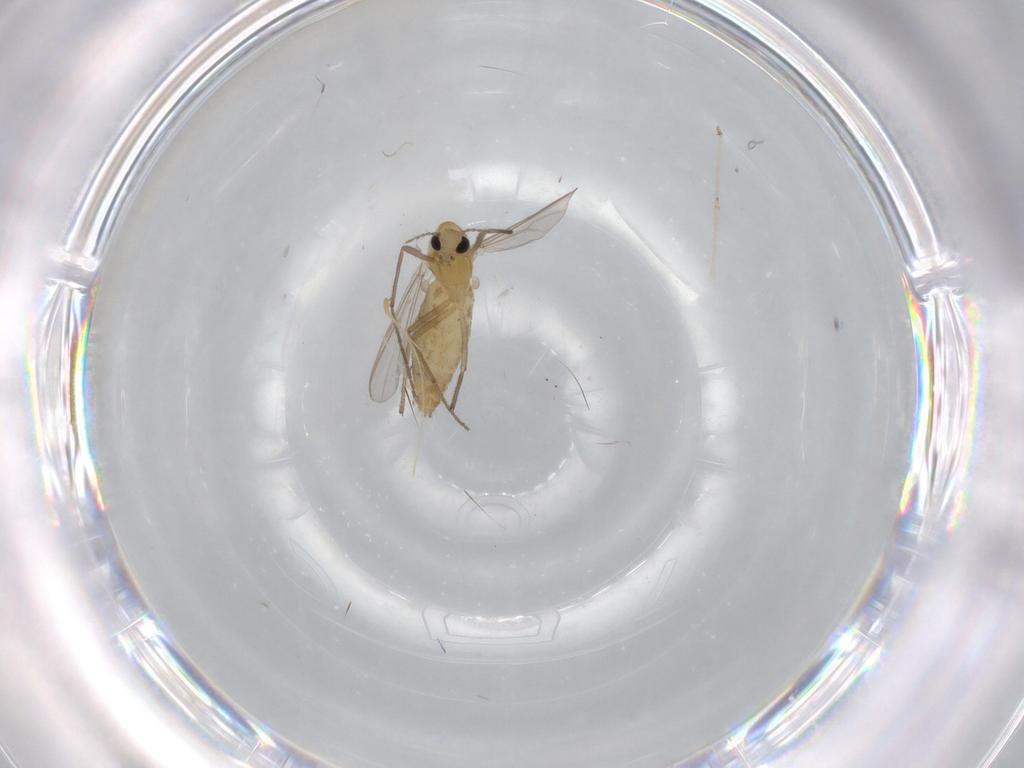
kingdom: Animalia
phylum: Arthropoda
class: Insecta
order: Diptera
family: Chironomidae
